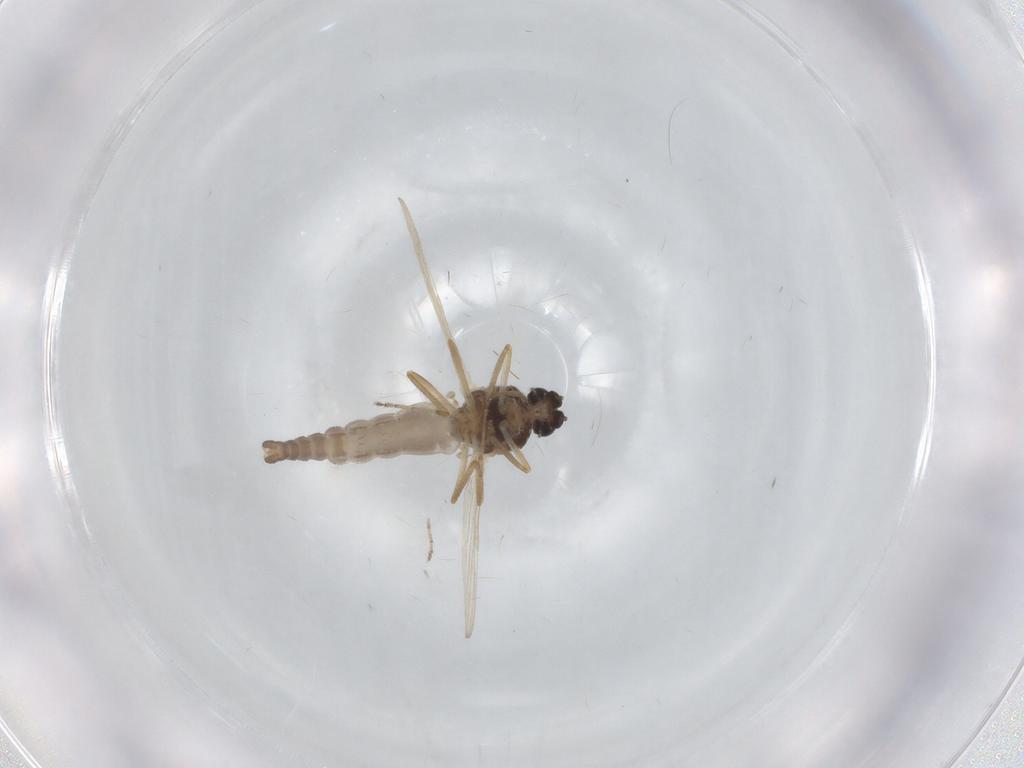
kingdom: Animalia
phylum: Arthropoda
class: Insecta
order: Diptera
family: Ceratopogonidae
